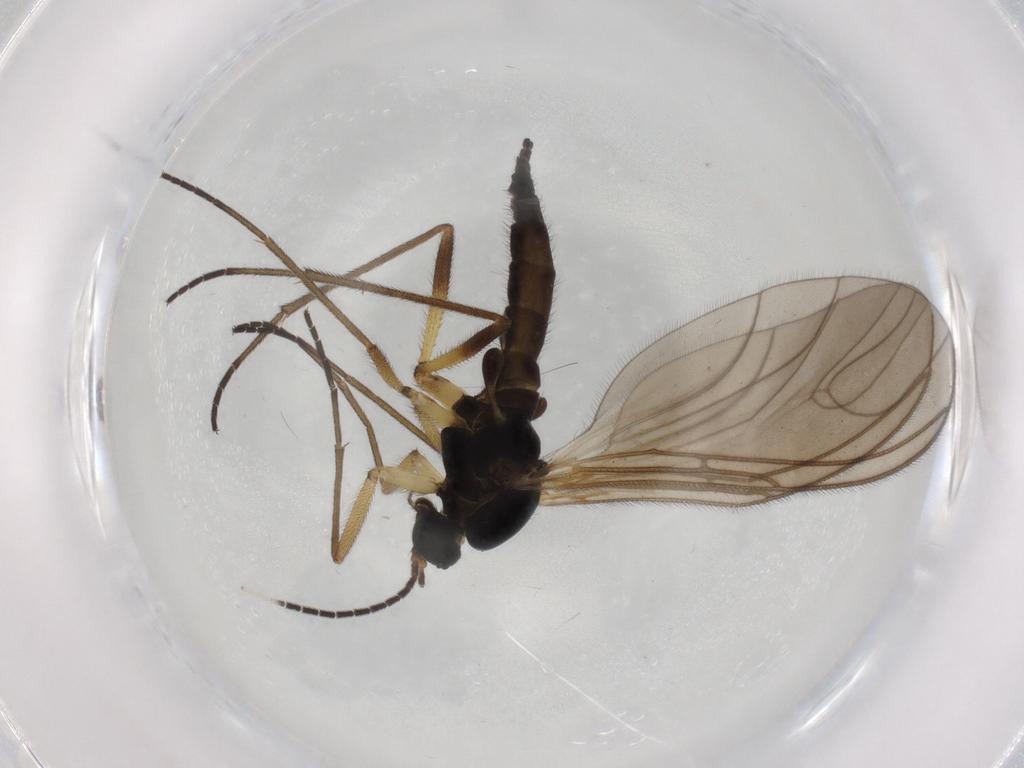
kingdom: Animalia
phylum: Arthropoda
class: Insecta
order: Diptera
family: Sciaridae
